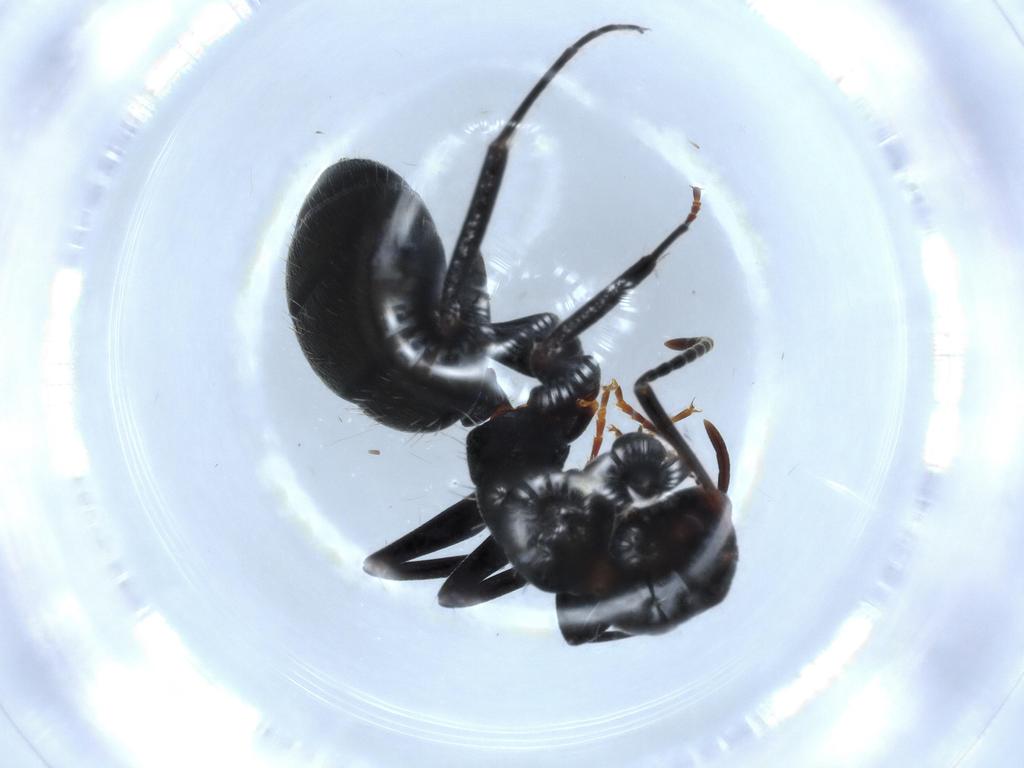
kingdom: Animalia
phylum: Arthropoda
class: Insecta
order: Hymenoptera
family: Formicidae
